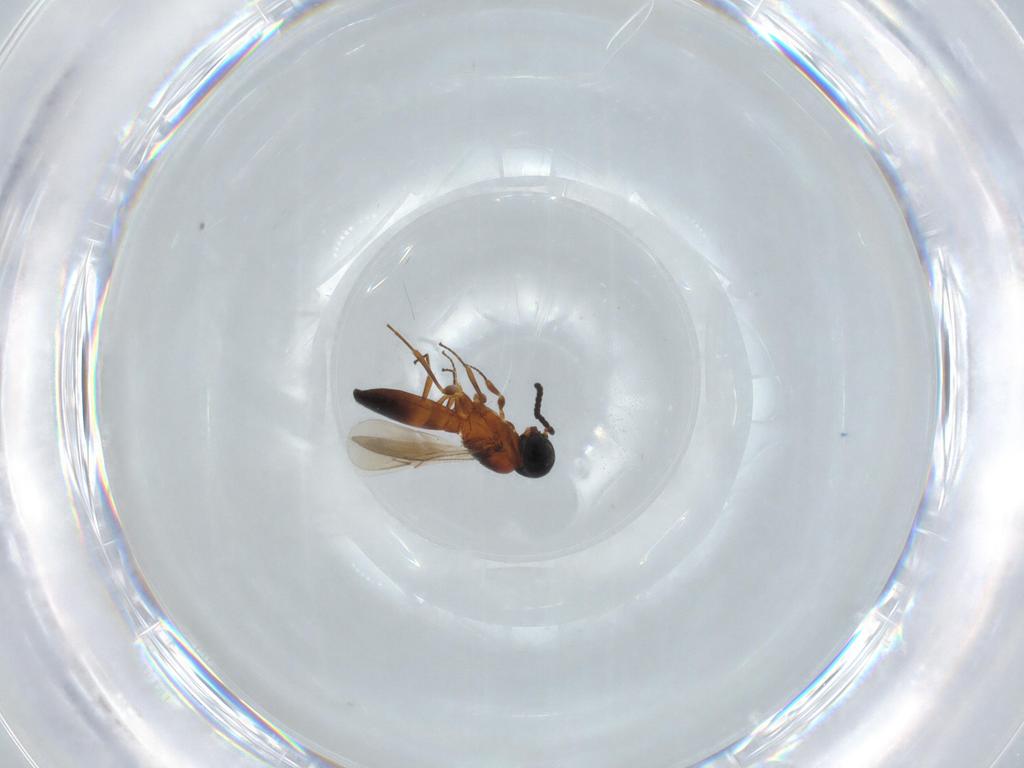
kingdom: Animalia
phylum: Arthropoda
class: Insecta
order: Hymenoptera
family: Scelionidae
